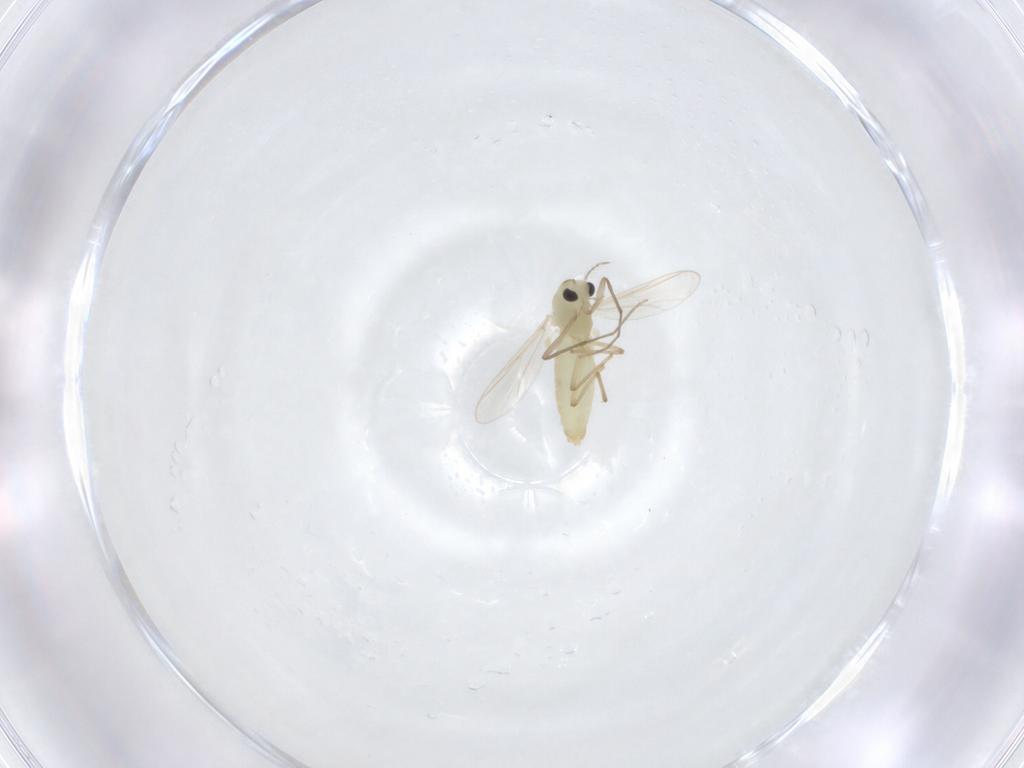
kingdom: Animalia
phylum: Arthropoda
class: Insecta
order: Diptera
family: Chironomidae
